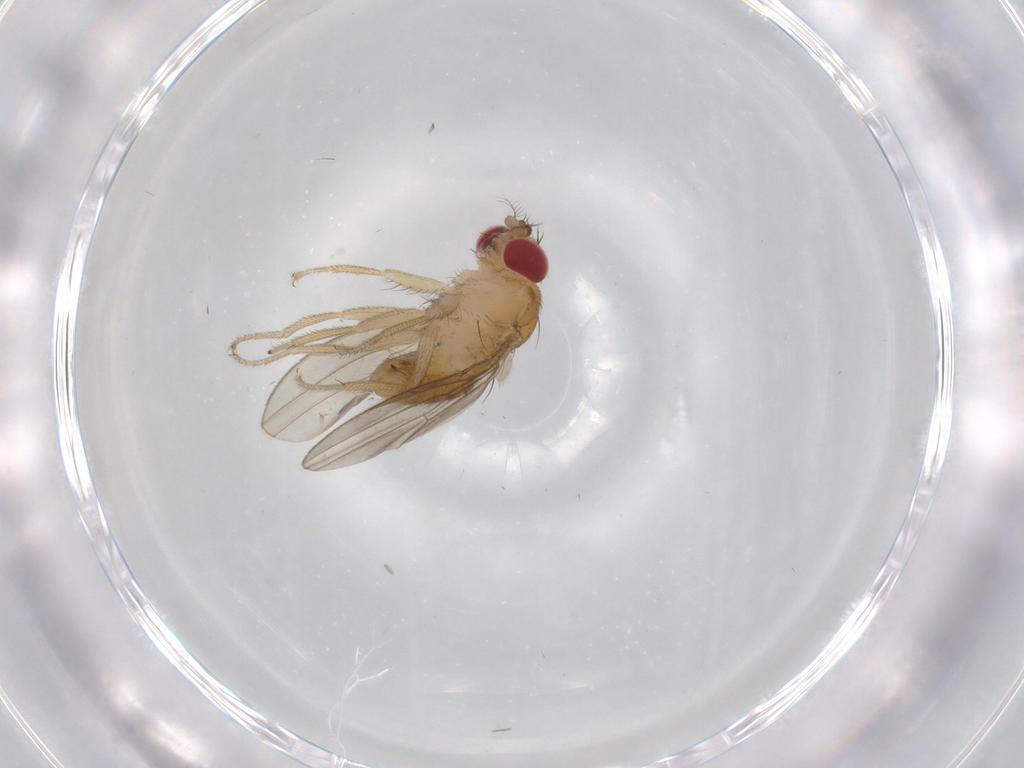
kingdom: Animalia
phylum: Arthropoda
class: Insecta
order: Diptera
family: Drosophilidae
